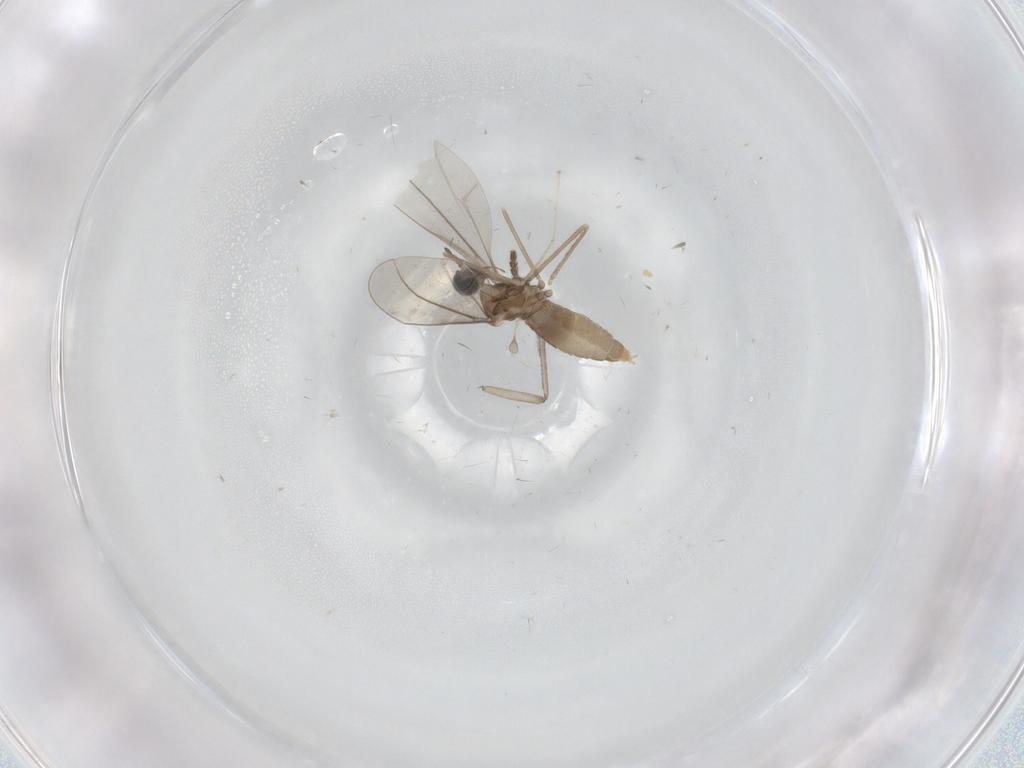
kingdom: Animalia
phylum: Arthropoda
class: Insecta
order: Diptera
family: Psychodidae
